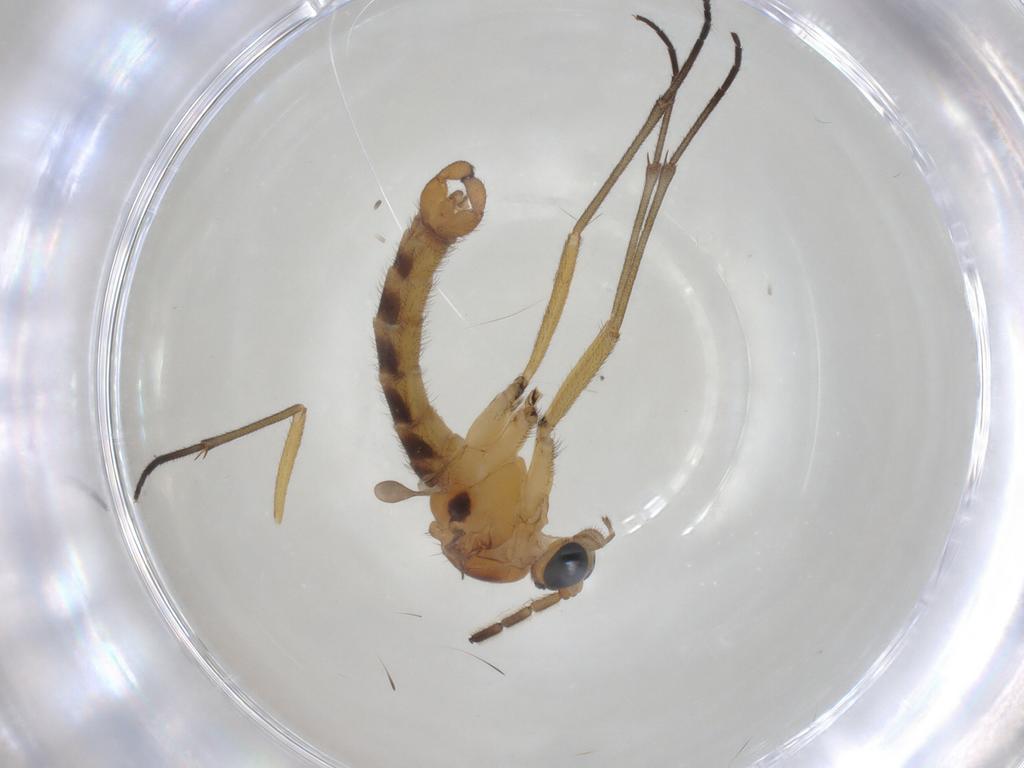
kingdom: Animalia
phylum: Arthropoda
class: Insecta
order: Diptera
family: Sciaridae
